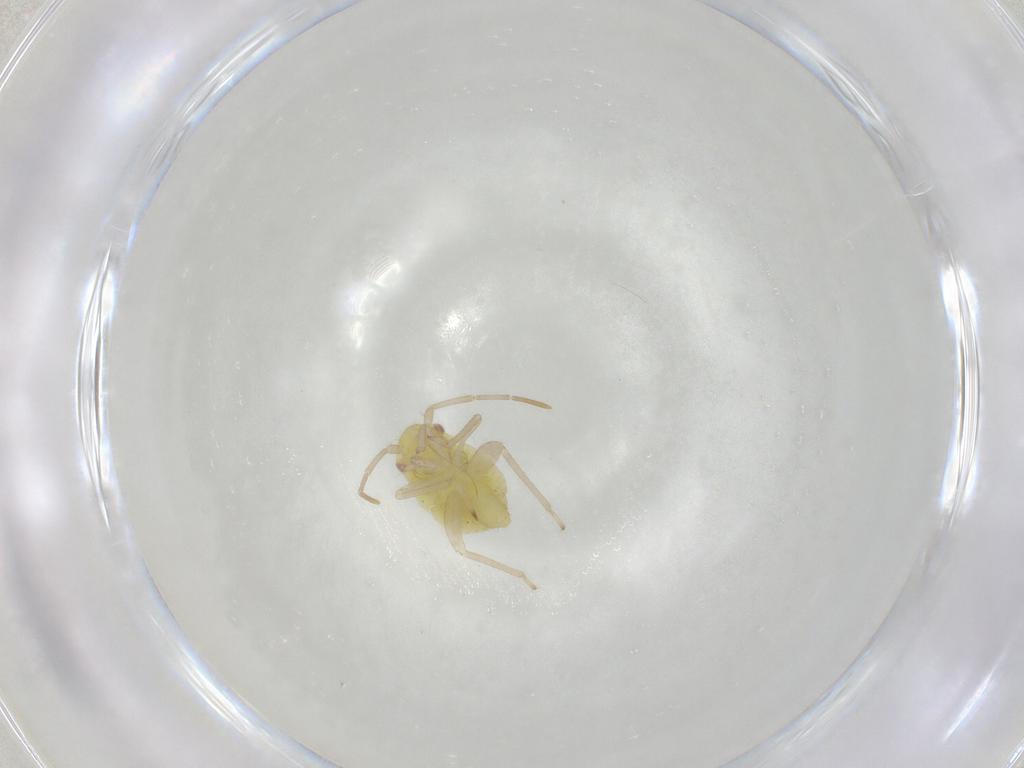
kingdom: Animalia
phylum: Arthropoda
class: Insecta
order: Hemiptera
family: Miridae
